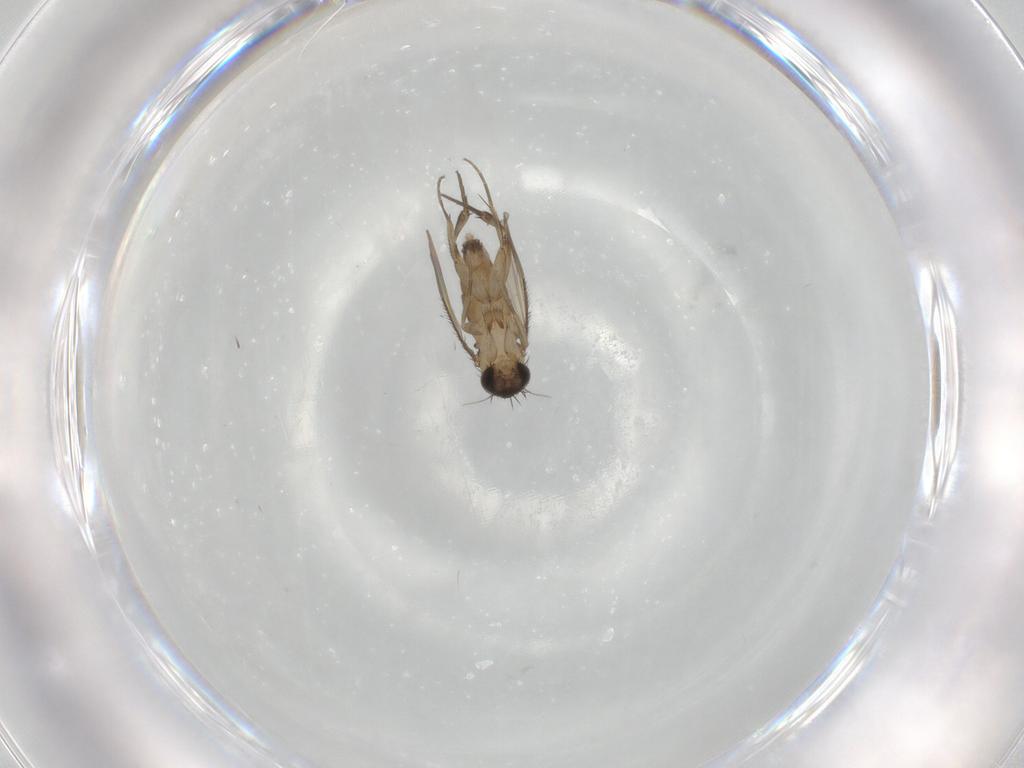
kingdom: Animalia
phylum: Arthropoda
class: Insecta
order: Diptera
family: Phoridae
